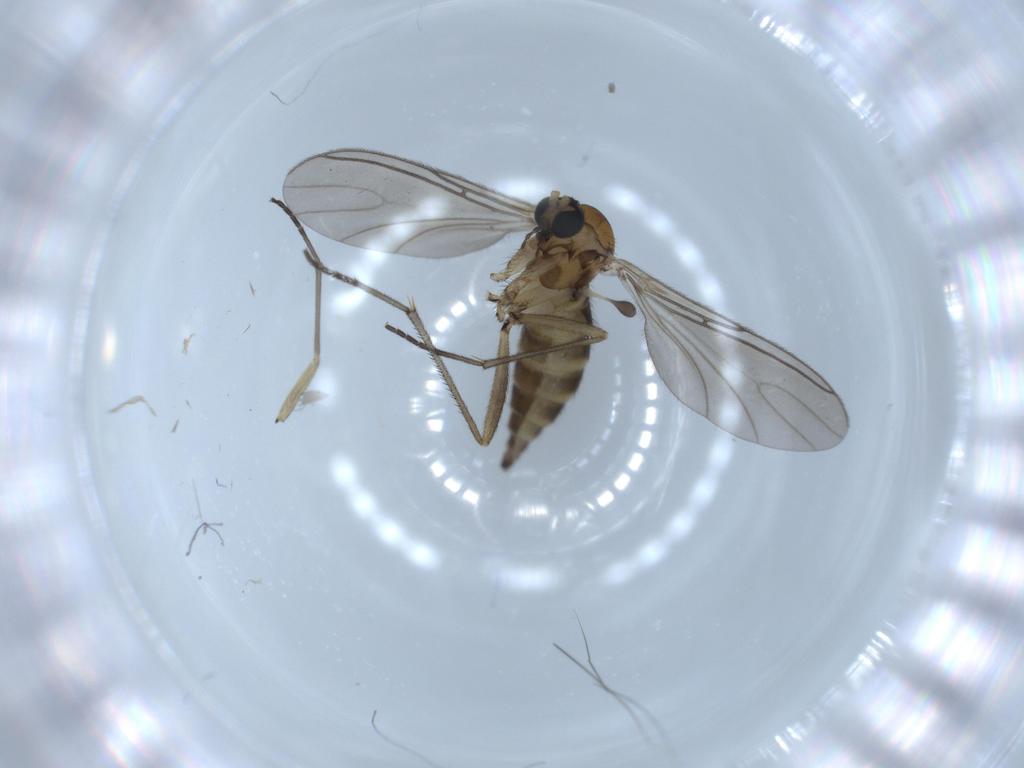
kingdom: Animalia
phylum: Arthropoda
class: Insecta
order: Diptera
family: Sciaridae
